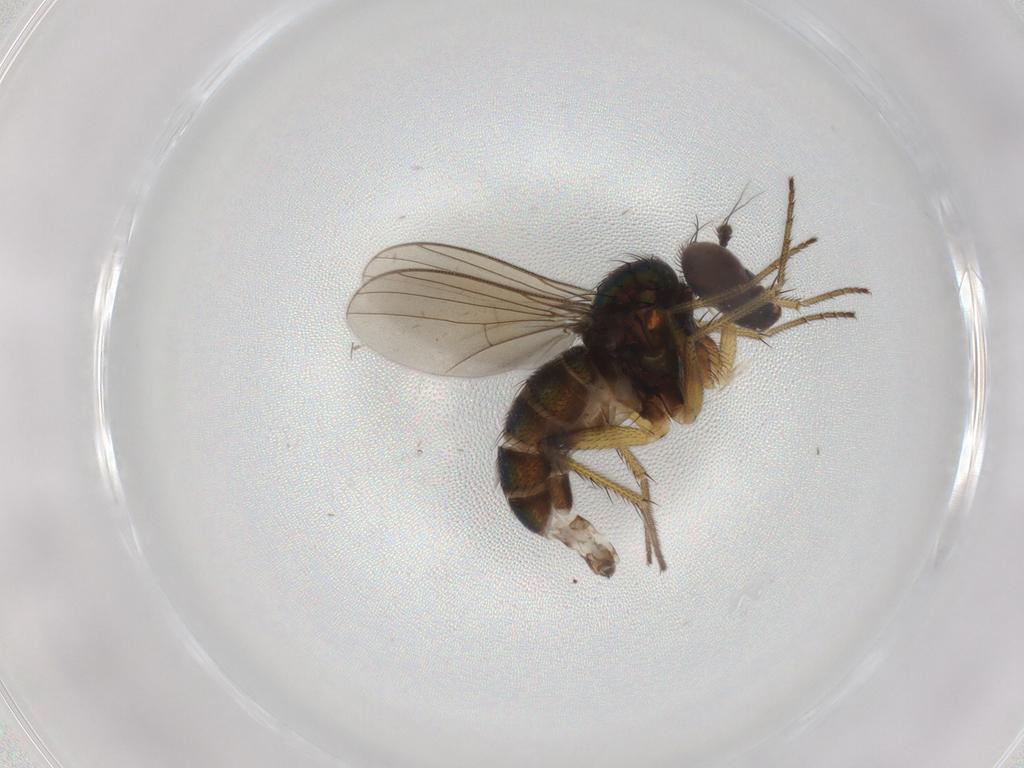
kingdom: Animalia
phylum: Arthropoda
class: Insecta
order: Diptera
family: Dolichopodidae
